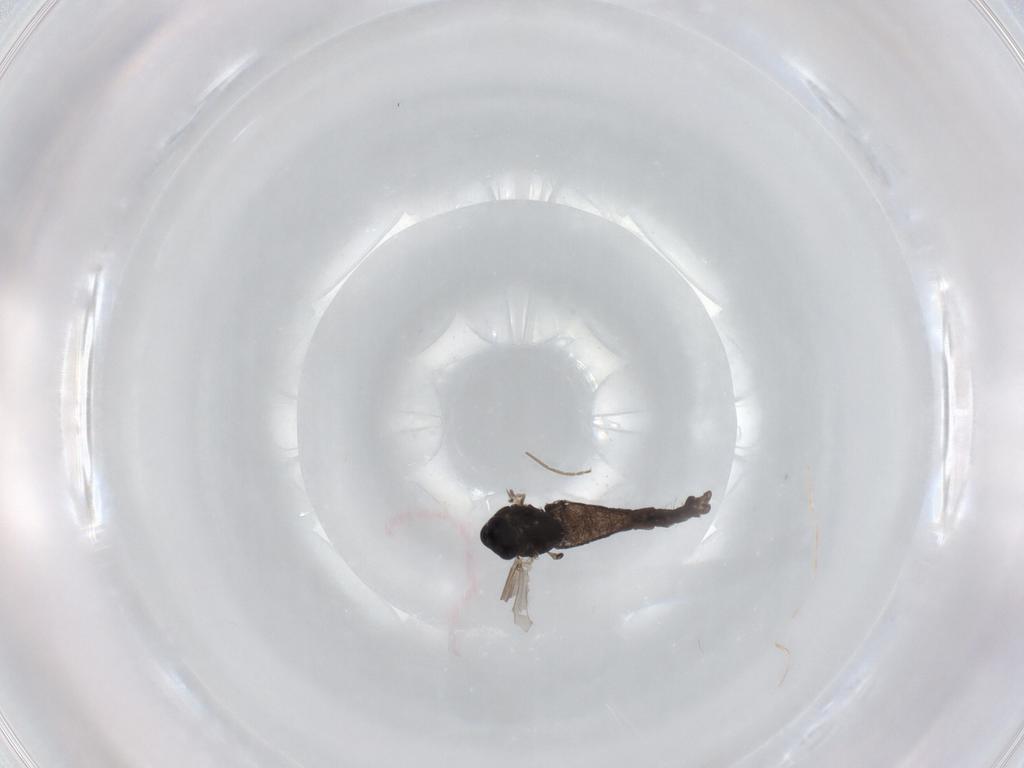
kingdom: Animalia
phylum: Arthropoda
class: Insecta
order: Diptera
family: Chironomidae
